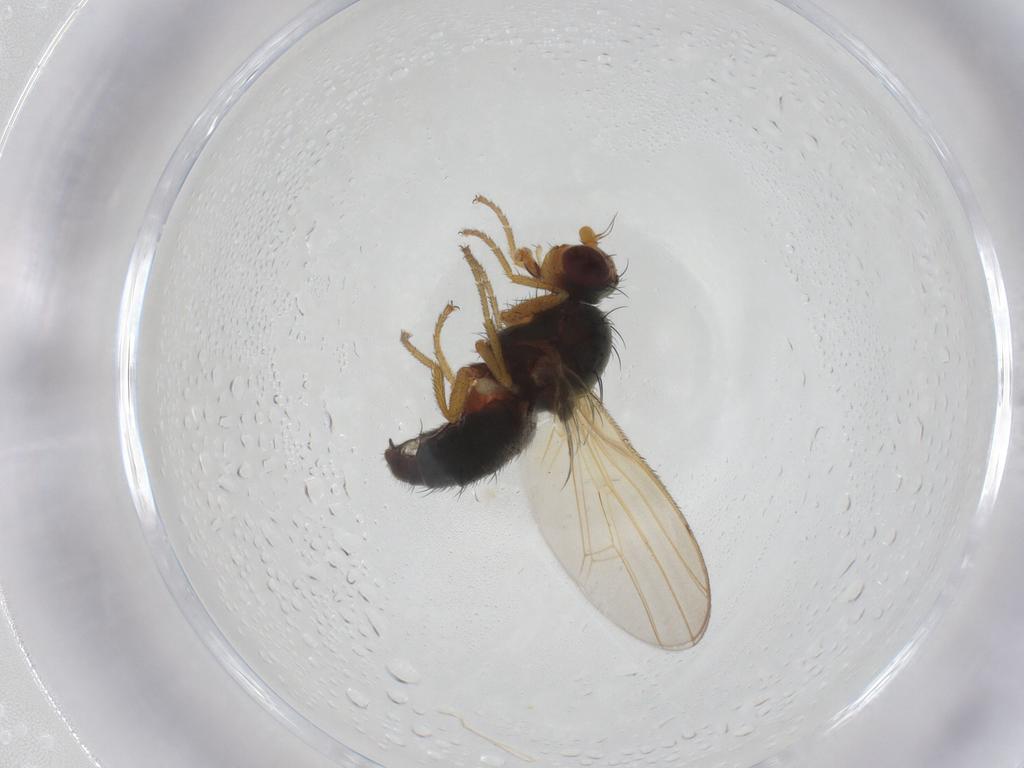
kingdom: Animalia
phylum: Arthropoda
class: Insecta
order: Diptera
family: Heleomyzidae
